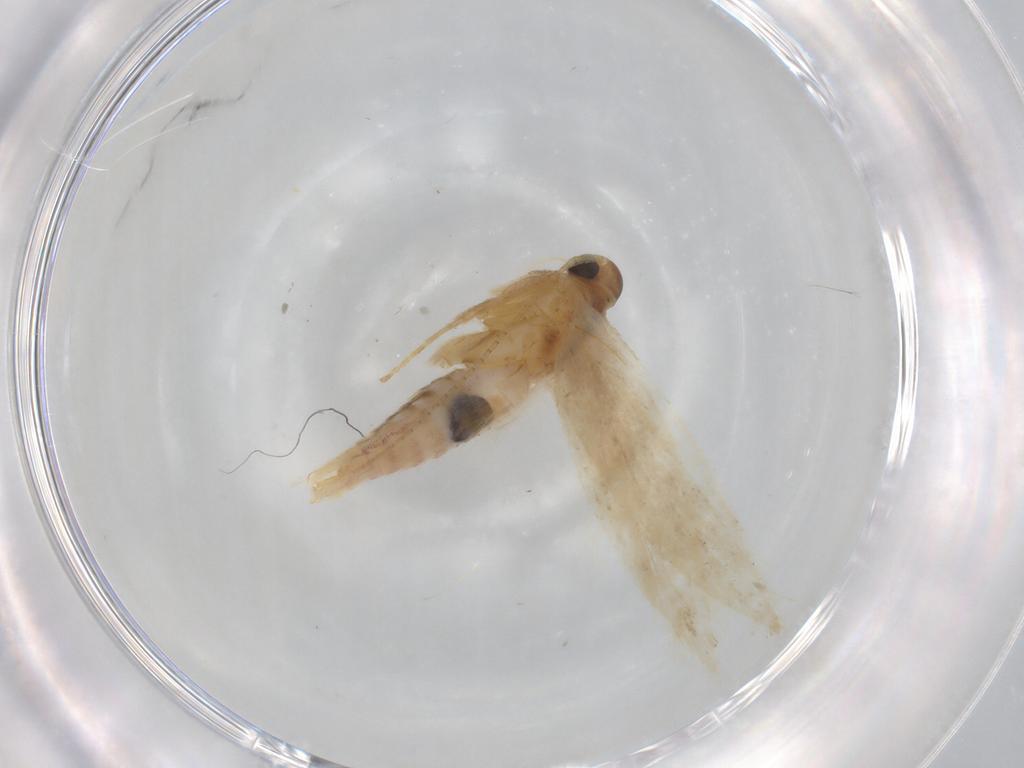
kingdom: Animalia
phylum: Arthropoda
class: Insecta
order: Lepidoptera
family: Gelechiidae
